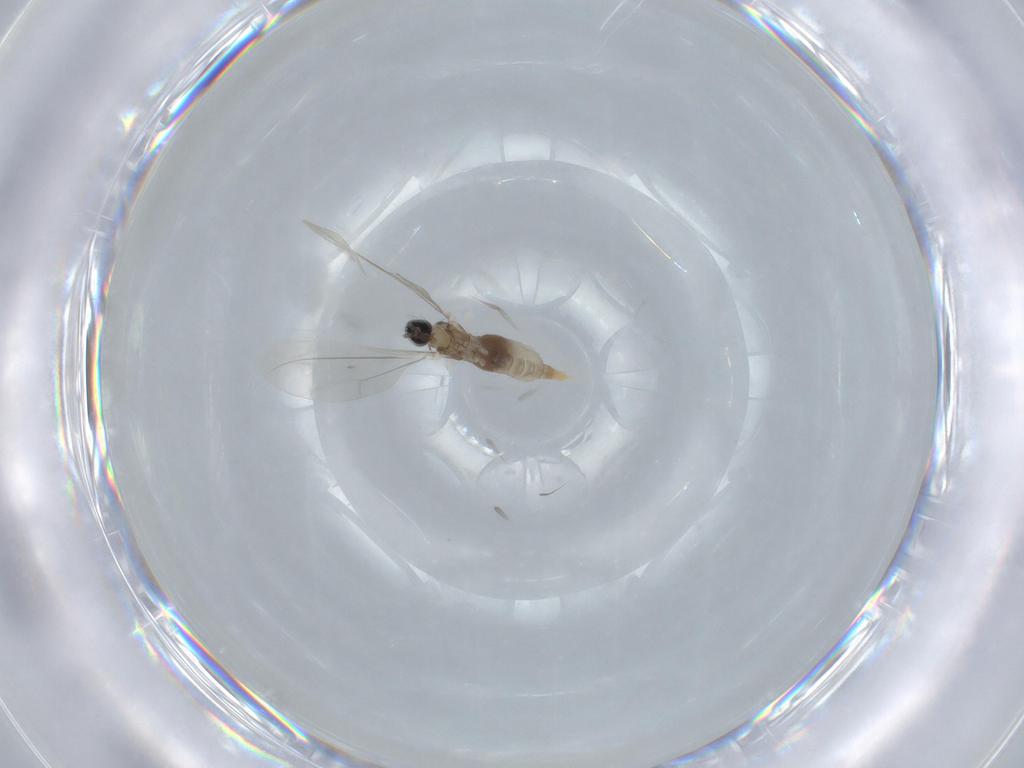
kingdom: Animalia
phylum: Arthropoda
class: Insecta
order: Diptera
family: Cecidomyiidae
